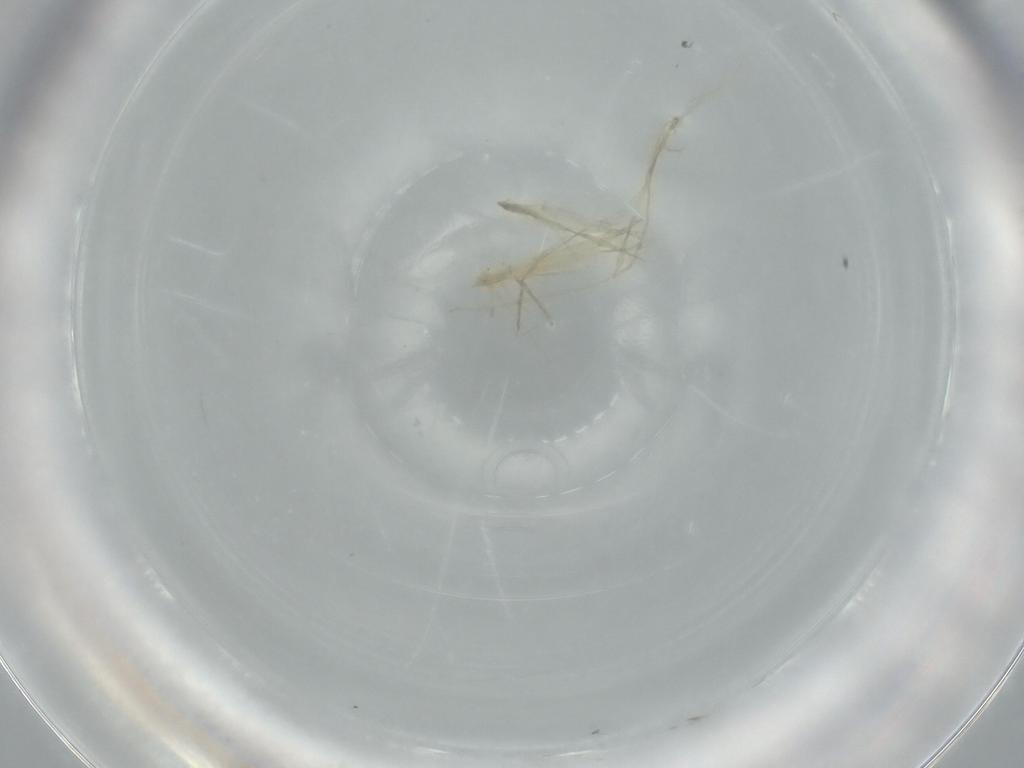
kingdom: Animalia
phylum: Arthropoda
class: Insecta
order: Diptera
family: Cecidomyiidae
